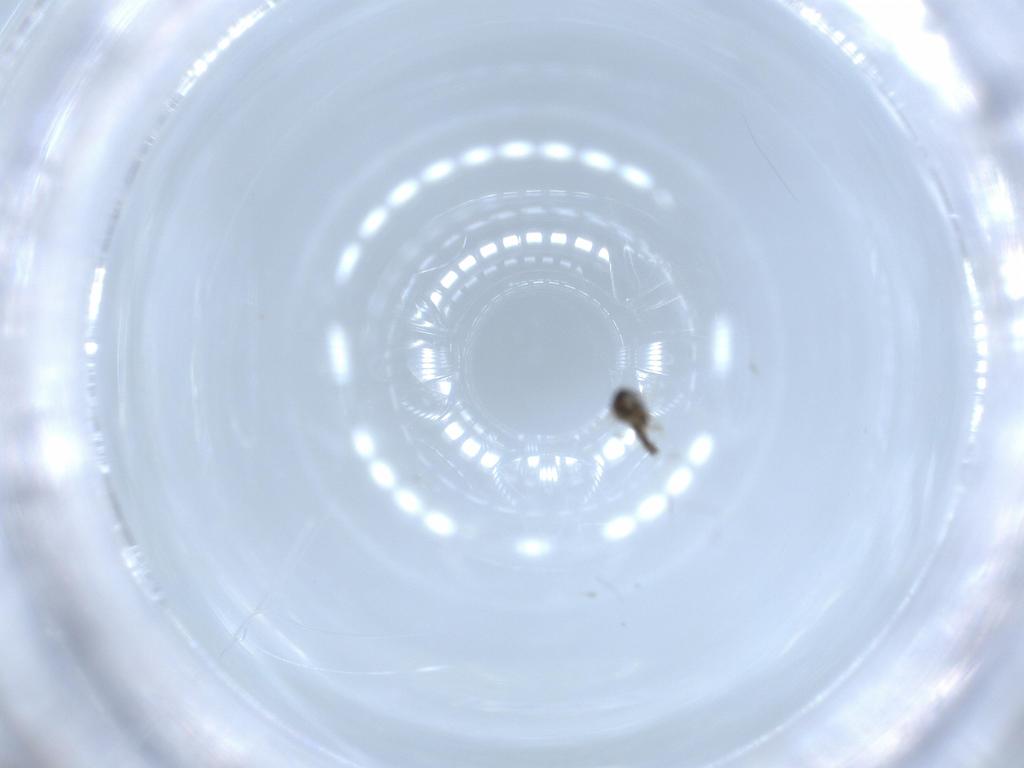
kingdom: Animalia
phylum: Arthropoda
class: Insecta
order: Diptera
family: Chironomidae
